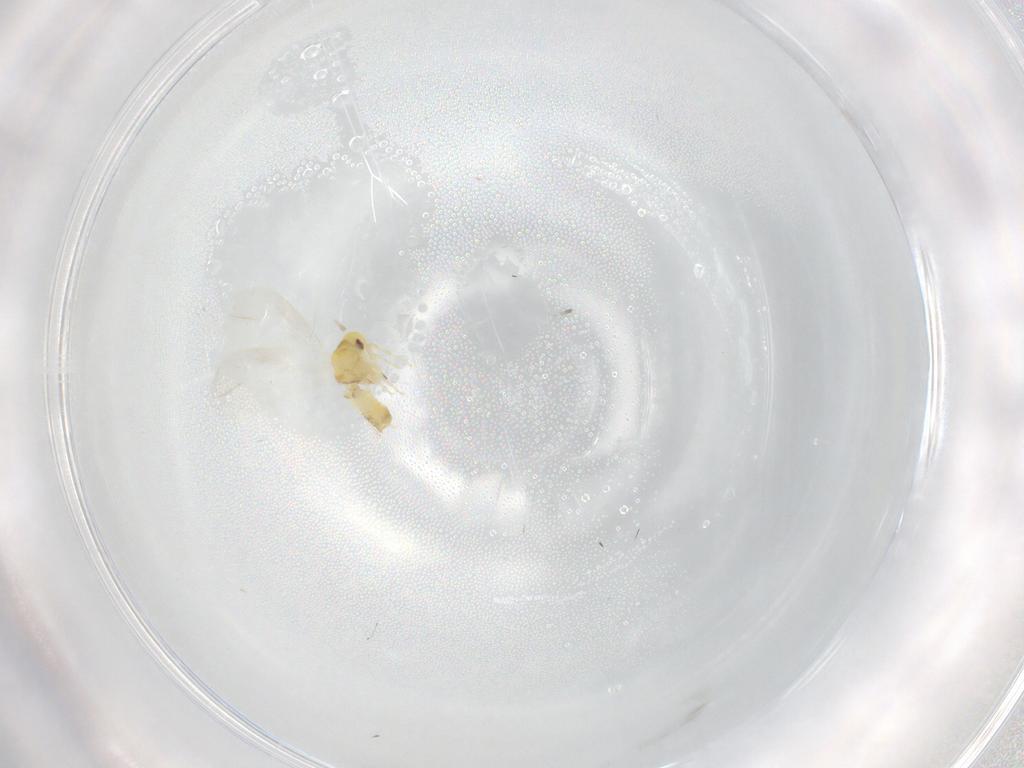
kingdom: Animalia
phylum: Arthropoda
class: Insecta
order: Hemiptera
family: Aleyrodidae
